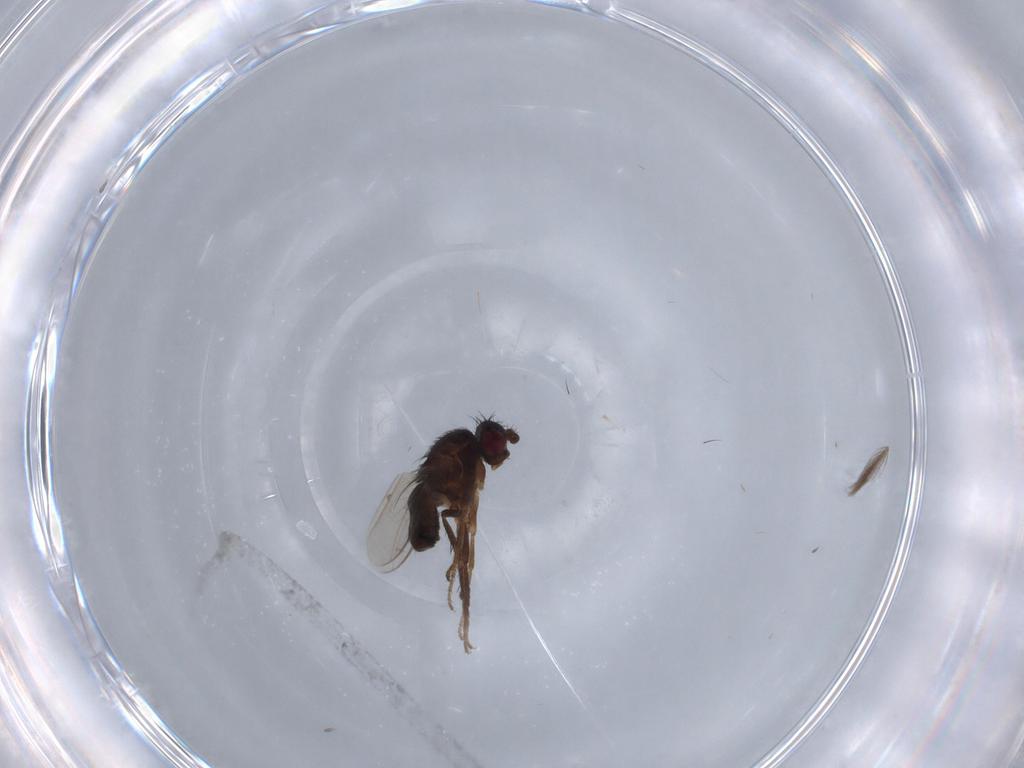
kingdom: Animalia
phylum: Arthropoda
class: Insecta
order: Diptera
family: Sphaeroceridae
